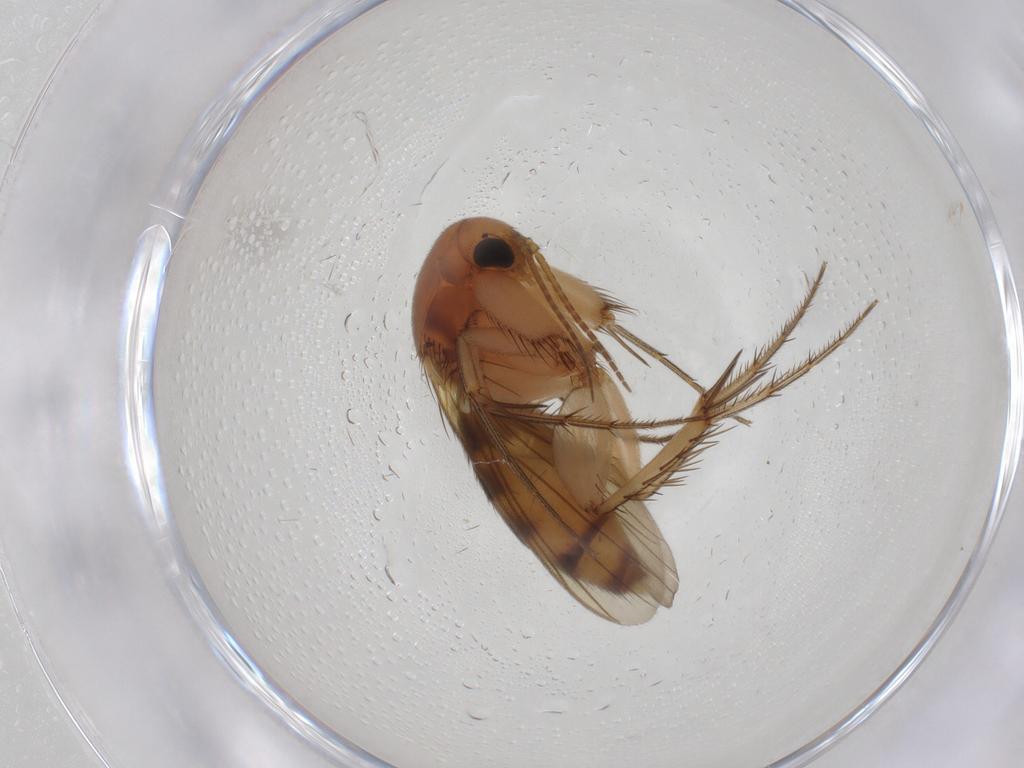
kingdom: Animalia
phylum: Arthropoda
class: Insecta
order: Diptera
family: Mycetophilidae
